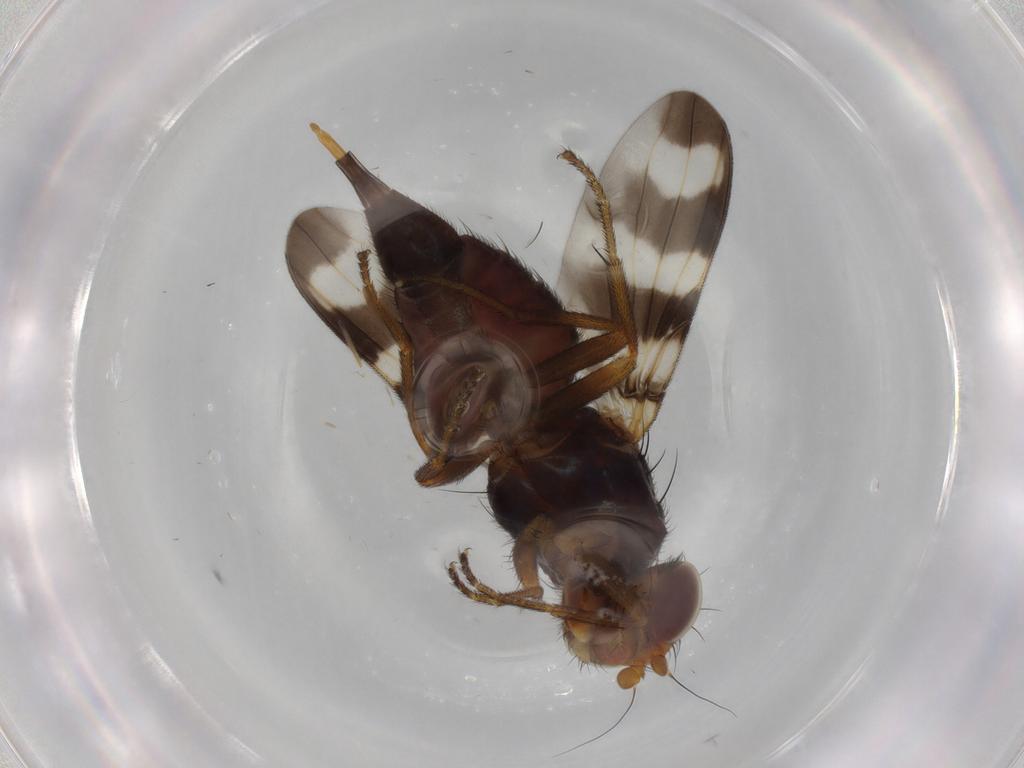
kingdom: Animalia
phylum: Arthropoda
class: Insecta
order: Diptera
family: Ulidiidae
